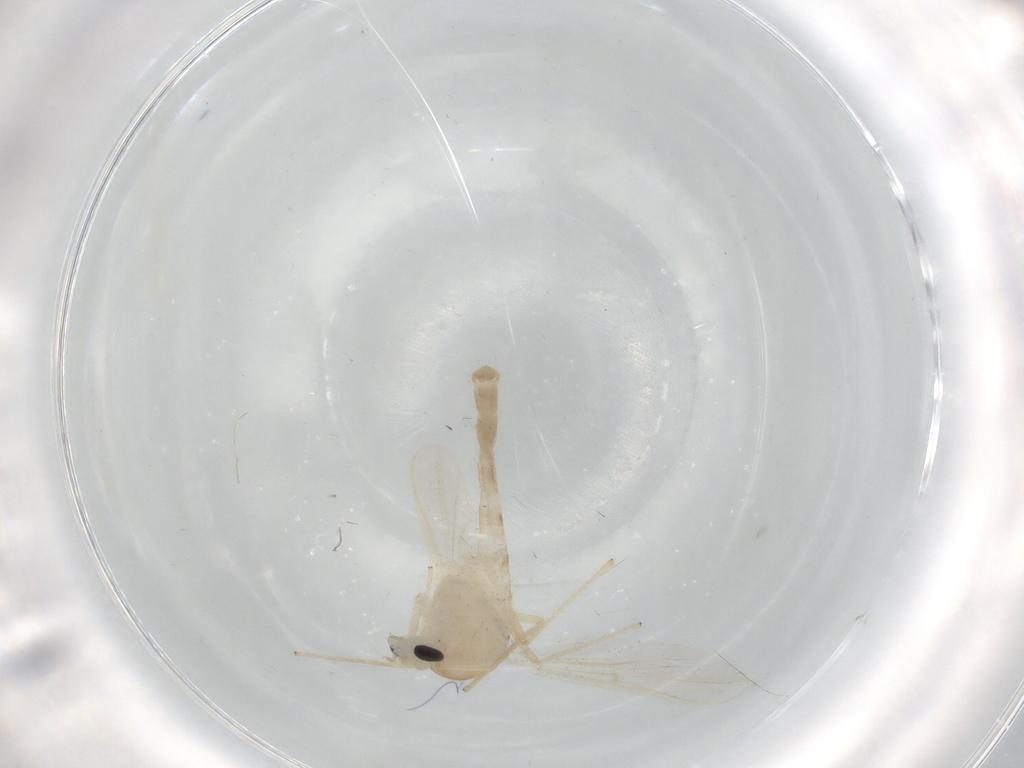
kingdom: Animalia
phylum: Arthropoda
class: Insecta
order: Diptera
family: Chironomidae
